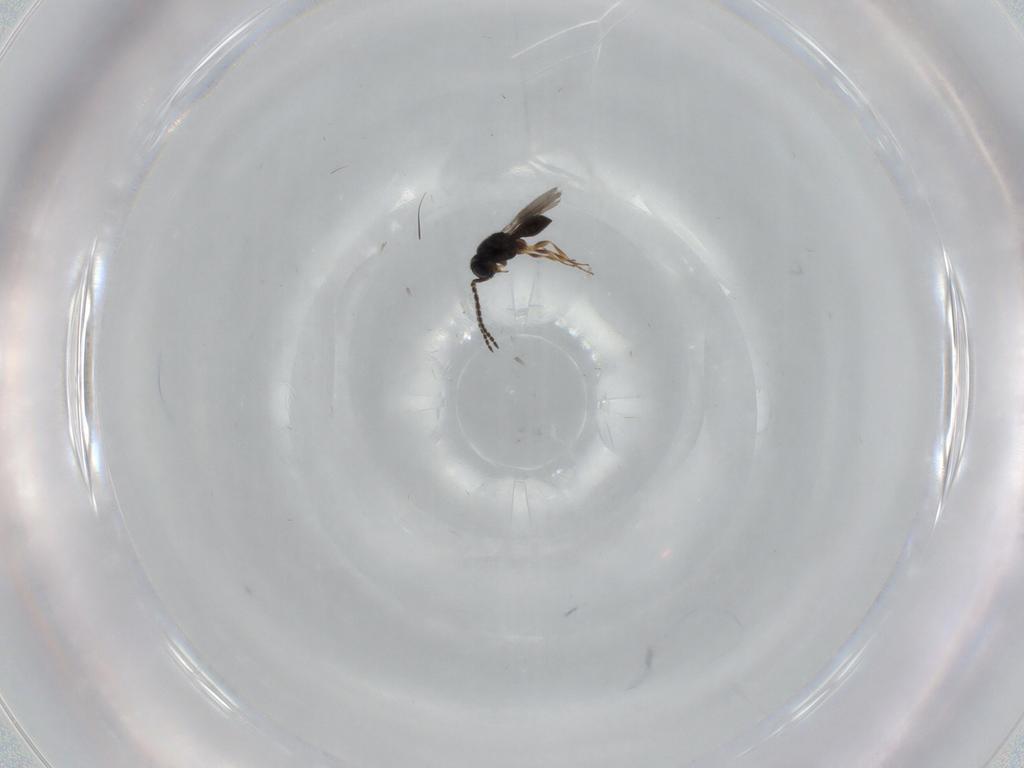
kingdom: Animalia
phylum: Arthropoda
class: Insecta
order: Hymenoptera
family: Scelionidae
